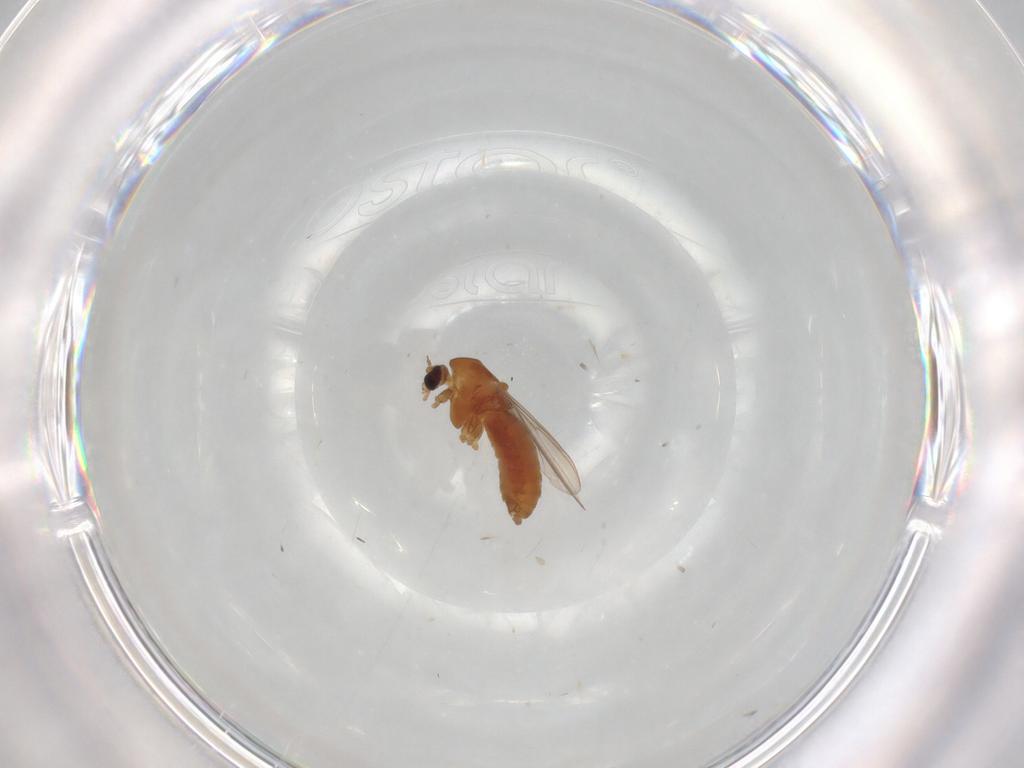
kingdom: Animalia
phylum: Arthropoda
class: Insecta
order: Diptera
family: Chironomidae
